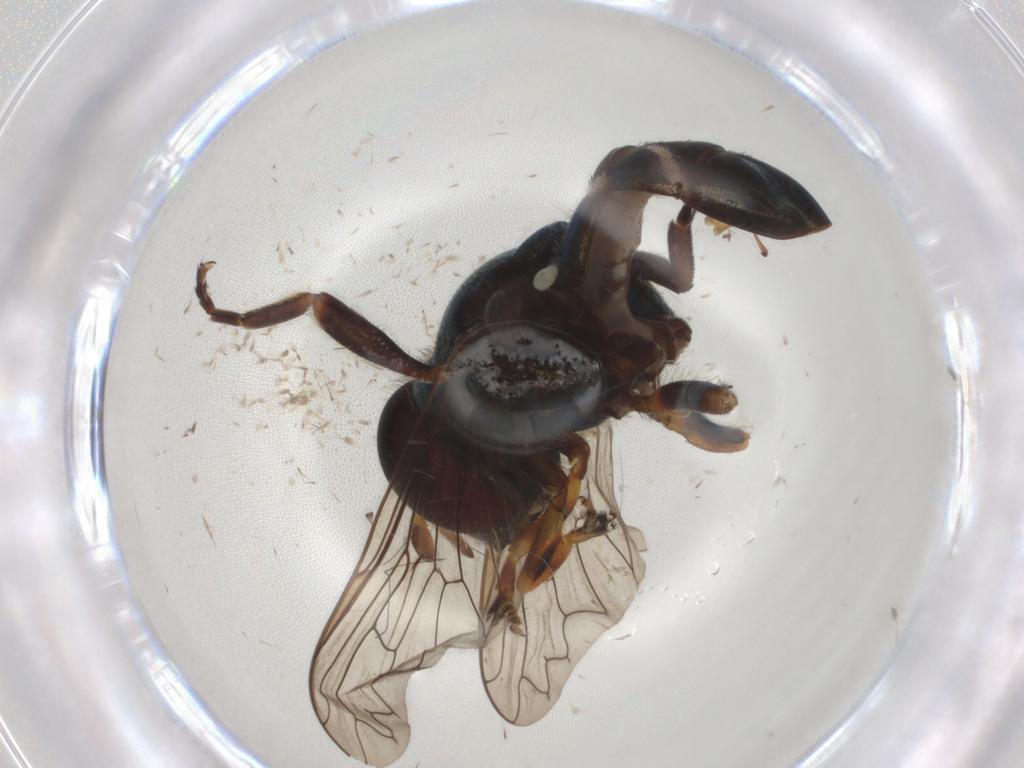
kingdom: Animalia
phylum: Arthropoda
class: Insecta
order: Diptera
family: Syrphidae
